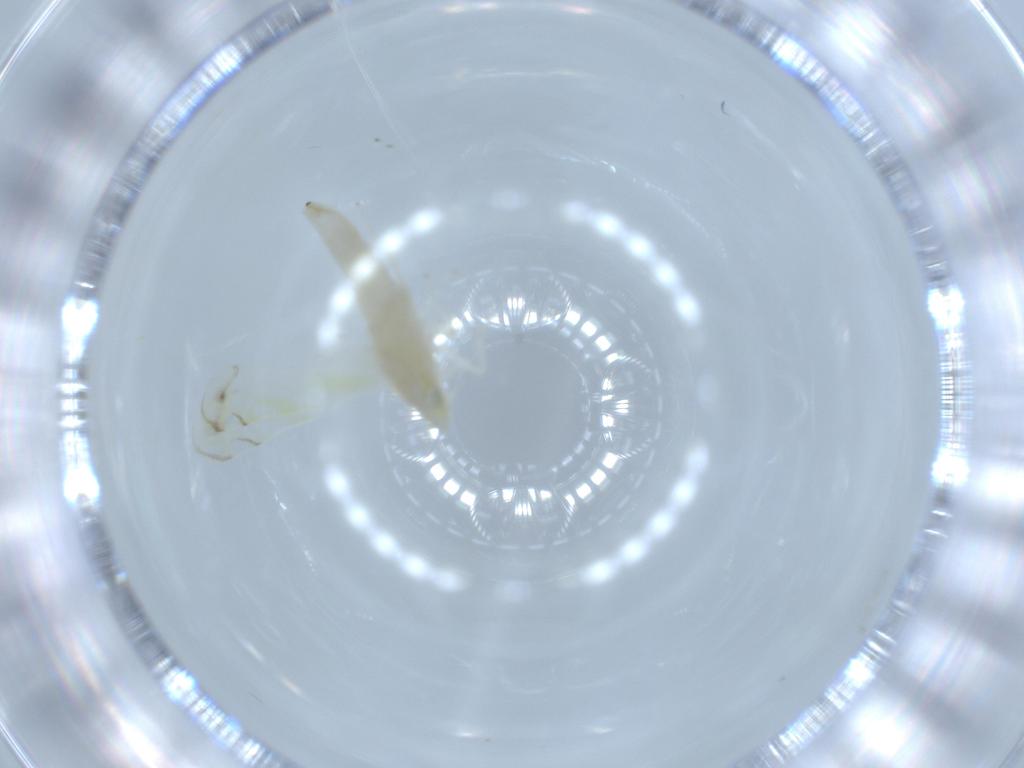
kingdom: Animalia
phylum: Arthropoda
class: Insecta
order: Hemiptera
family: Cicadellidae
